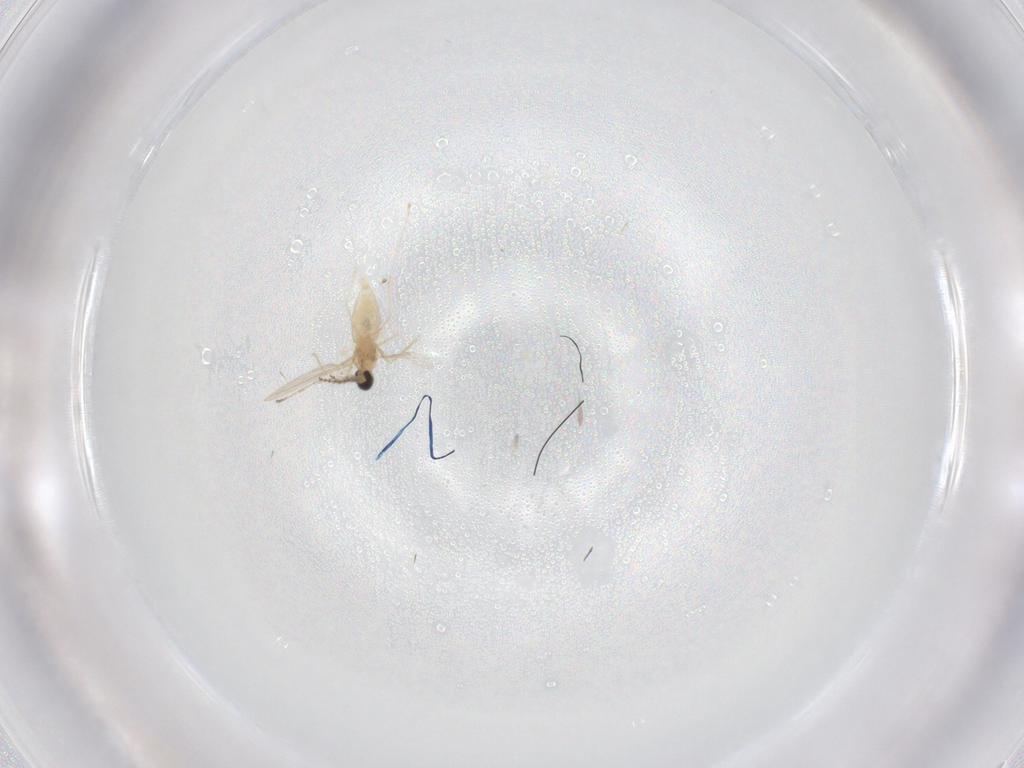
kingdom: Animalia
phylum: Arthropoda
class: Insecta
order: Diptera
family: Cecidomyiidae
